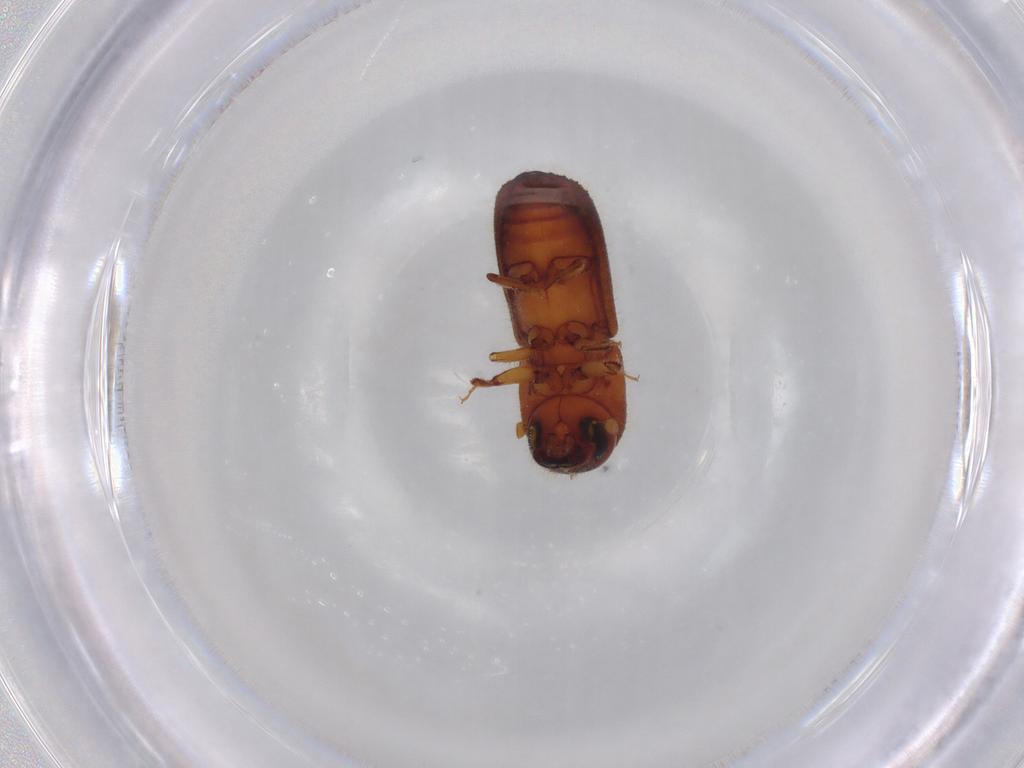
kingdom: Animalia
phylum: Arthropoda
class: Insecta
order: Coleoptera
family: Curculionidae
